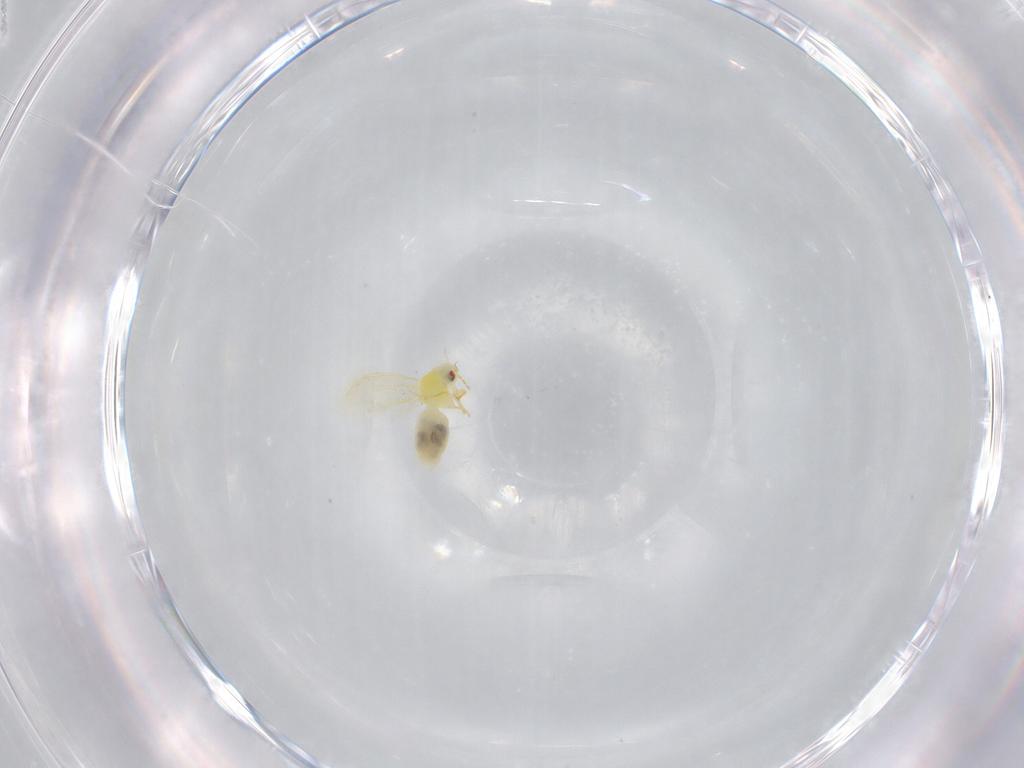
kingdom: Animalia
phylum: Arthropoda
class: Insecta
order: Hemiptera
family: Aleyrodidae
